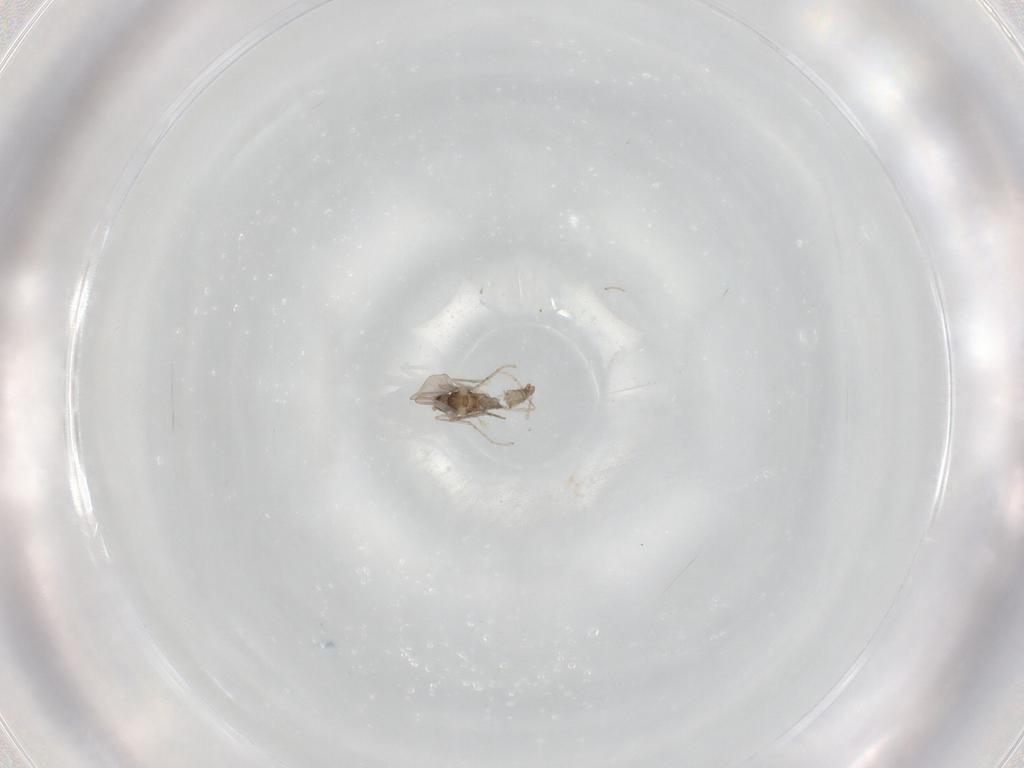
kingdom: Animalia
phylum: Arthropoda
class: Insecta
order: Diptera
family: Cecidomyiidae
